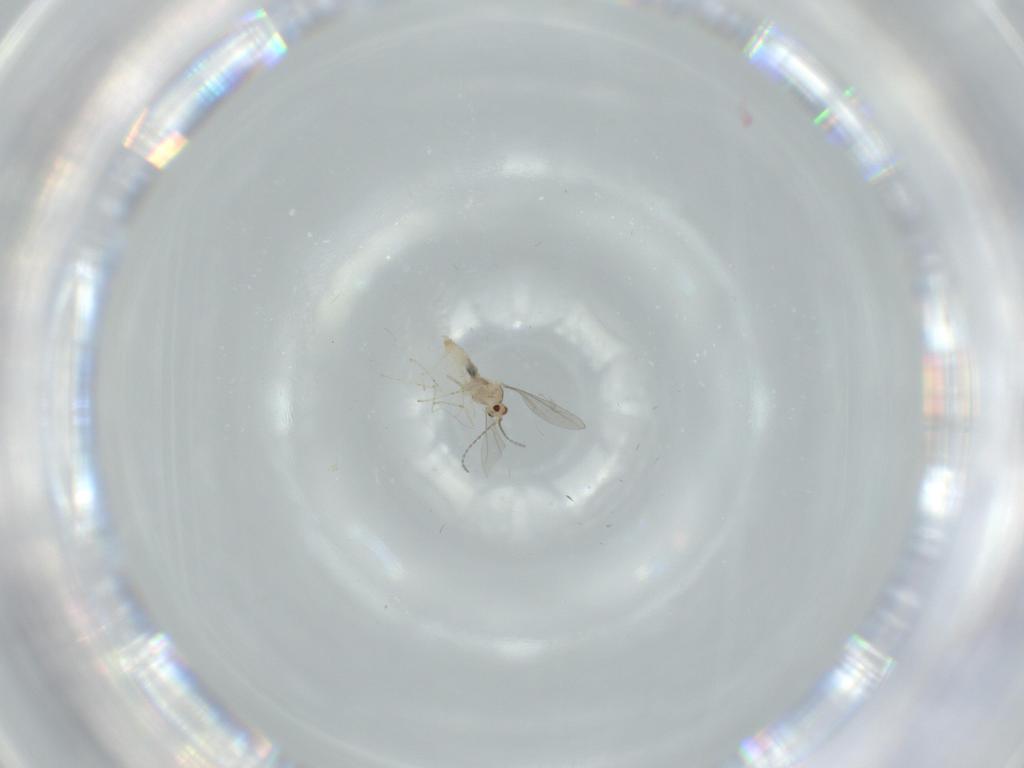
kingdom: Animalia
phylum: Arthropoda
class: Insecta
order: Diptera
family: Cecidomyiidae
